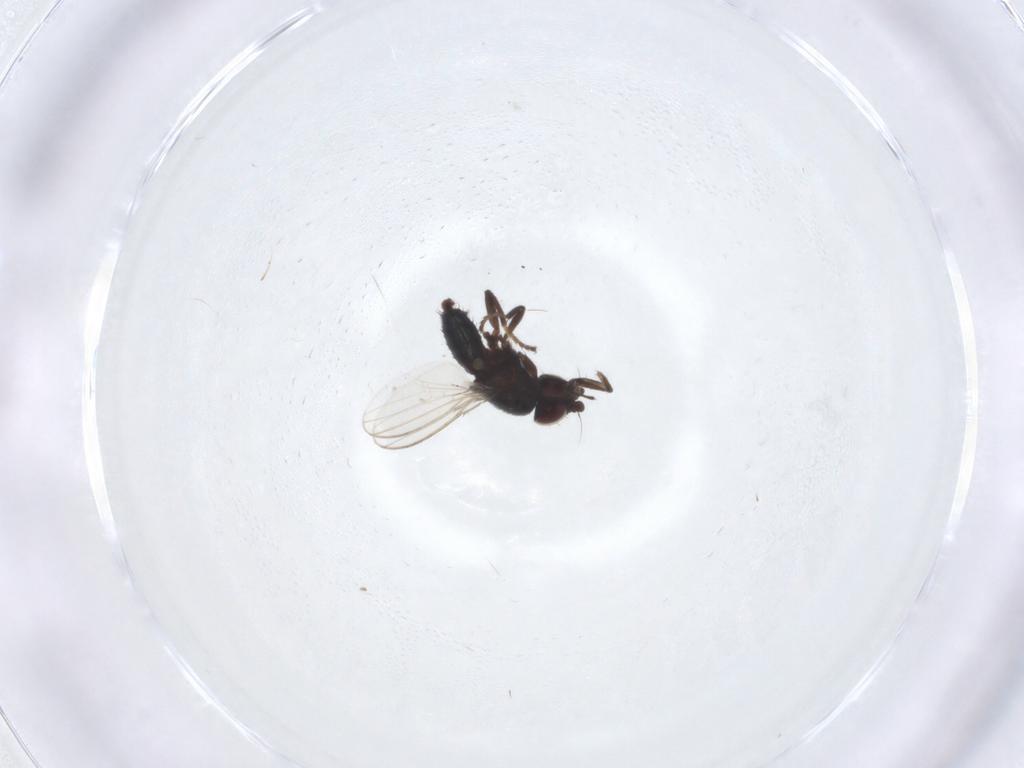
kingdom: Animalia
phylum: Arthropoda
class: Insecta
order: Diptera
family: Milichiidae
